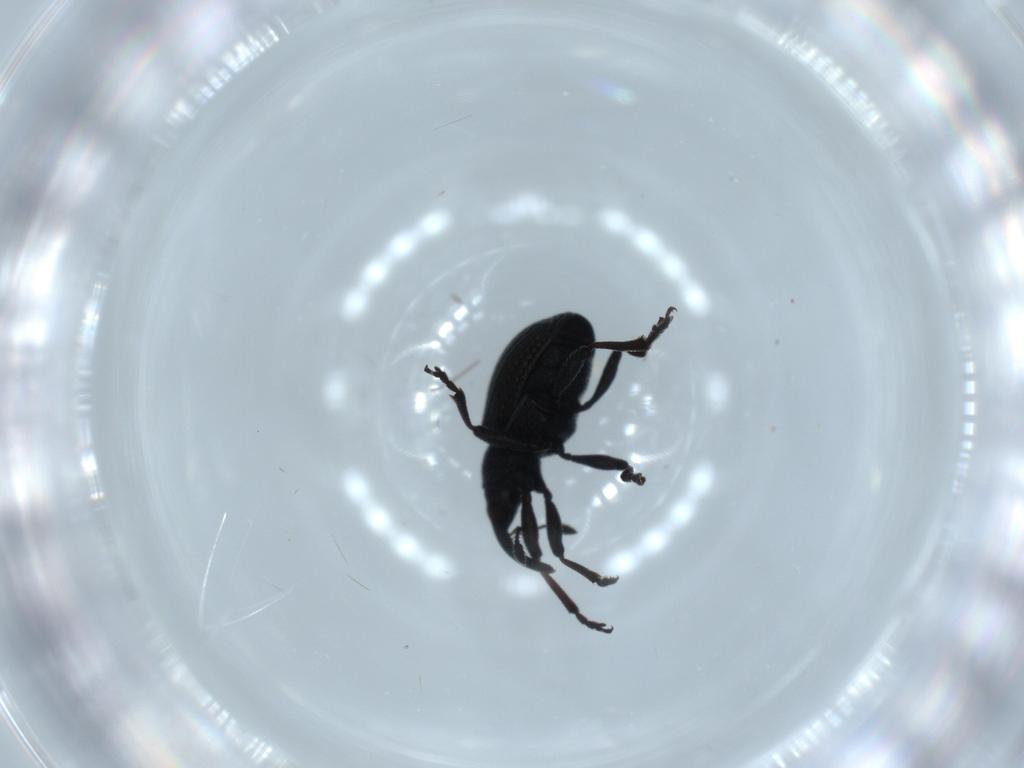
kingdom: Animalia
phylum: Arthropoda
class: Insecta
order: Coleoptera
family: Brentidae
